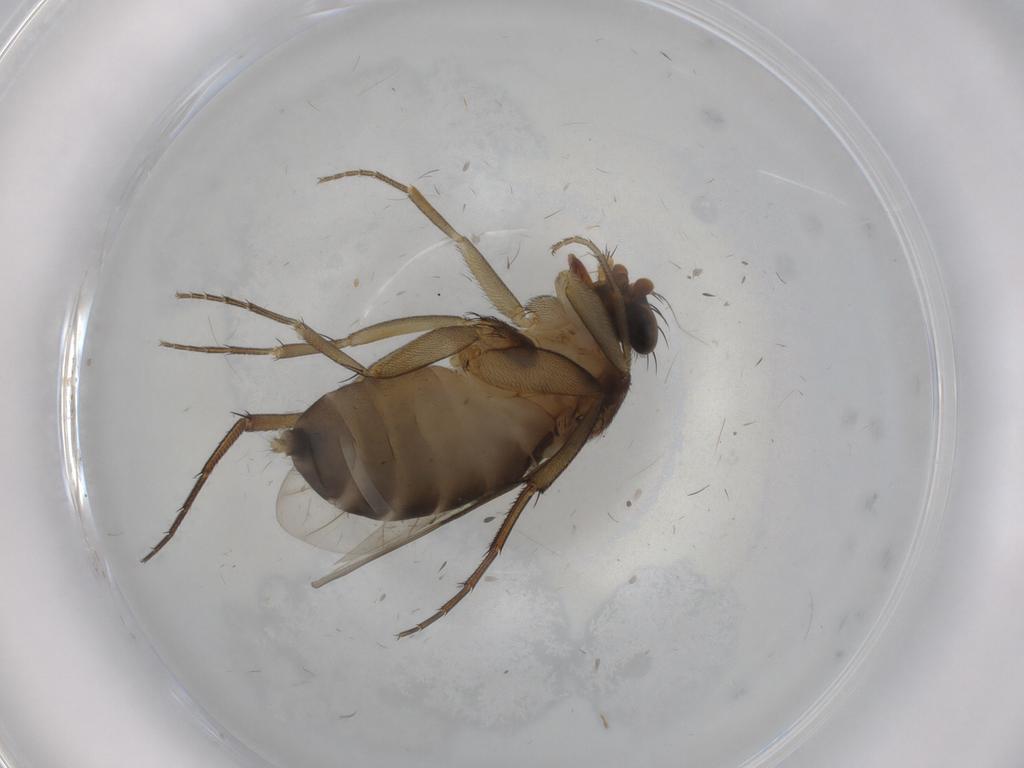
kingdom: Animalia
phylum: Arthropoda
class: Insecta
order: Diptera
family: Phoridae
